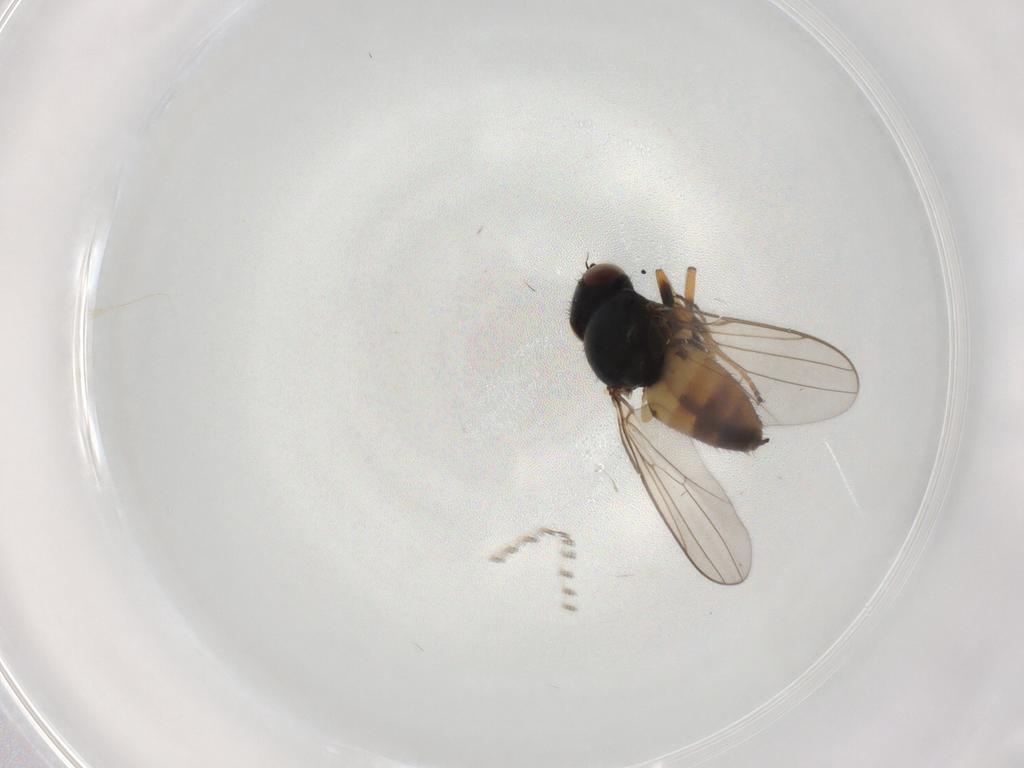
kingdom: Animalia
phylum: Arthropoda
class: Insecta
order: Diptera
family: Chloropidae
